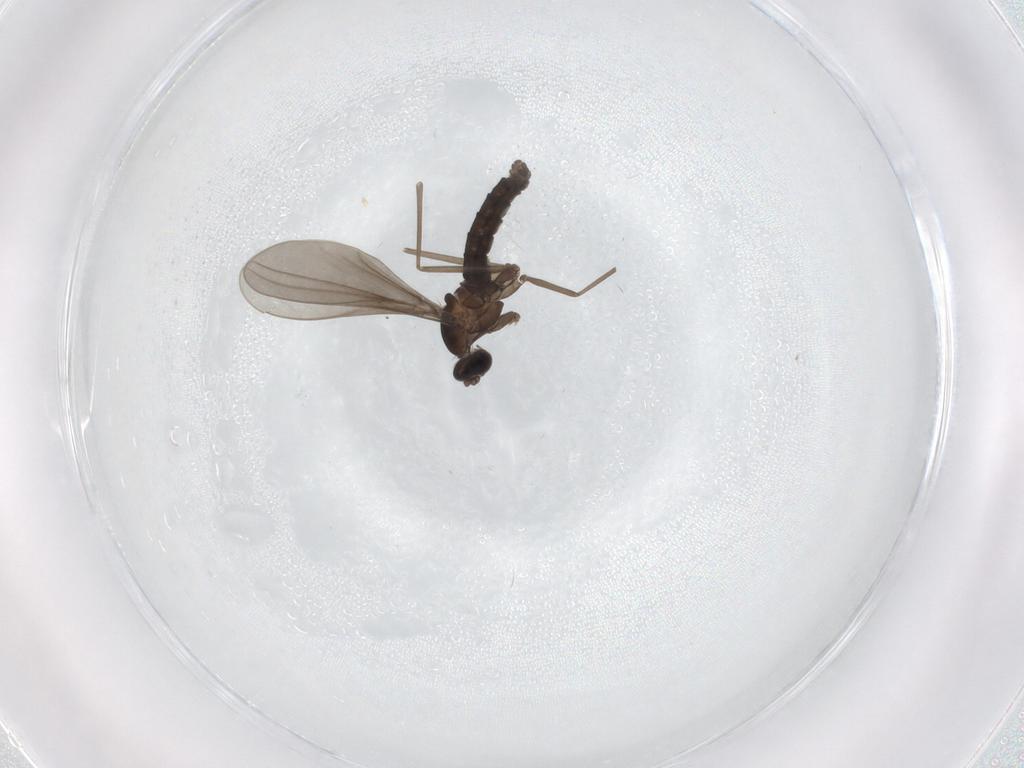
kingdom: Animalia
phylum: Arthropoda
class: Insecta
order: Diptera
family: Cecidomyiidae
